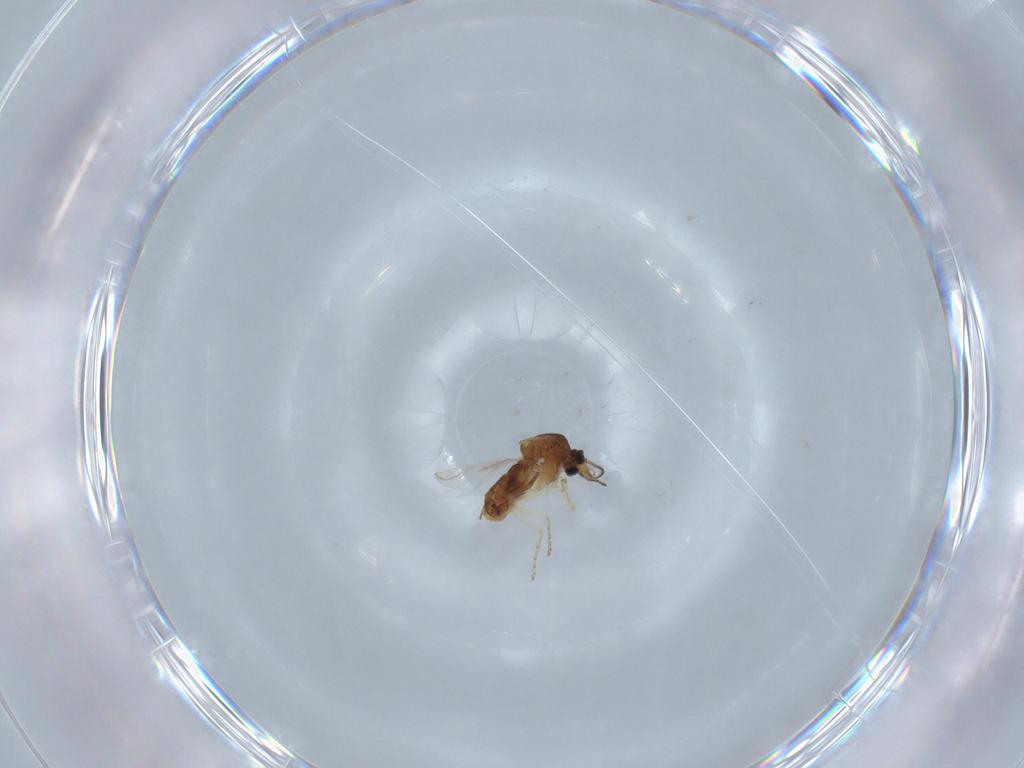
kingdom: Animalia
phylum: Arthropoda
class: Insecta
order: Diptera
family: Ceratopogonidae
